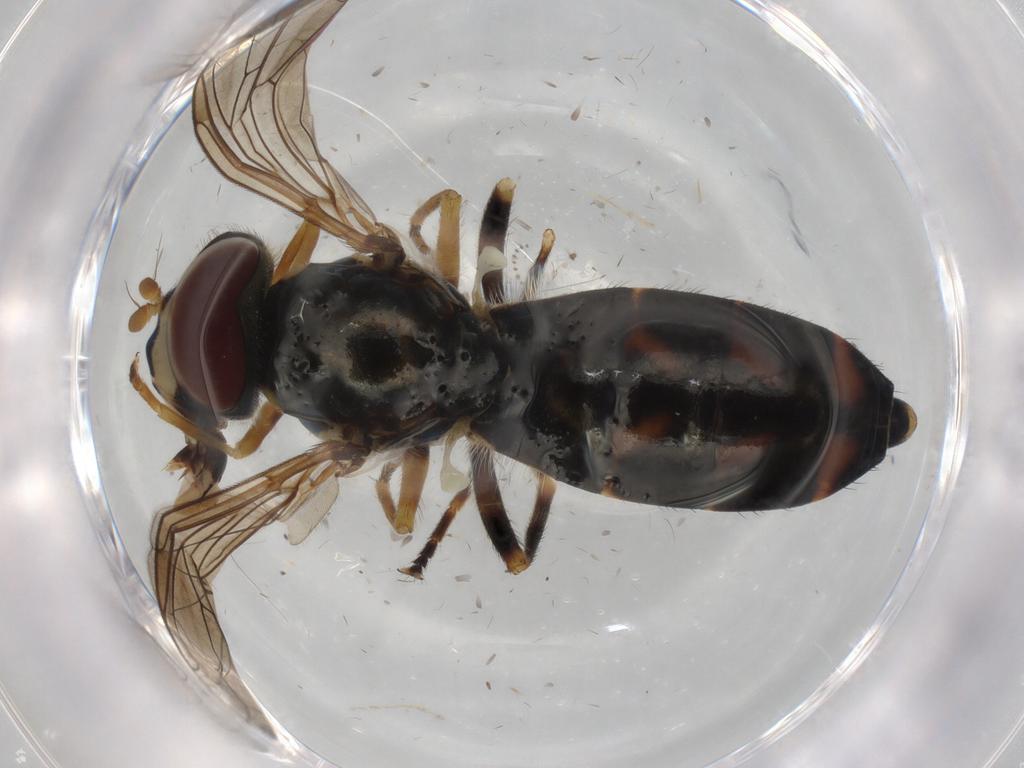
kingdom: Animalia
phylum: Arthropoda
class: Insecta
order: Diptera
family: Syrphidae
